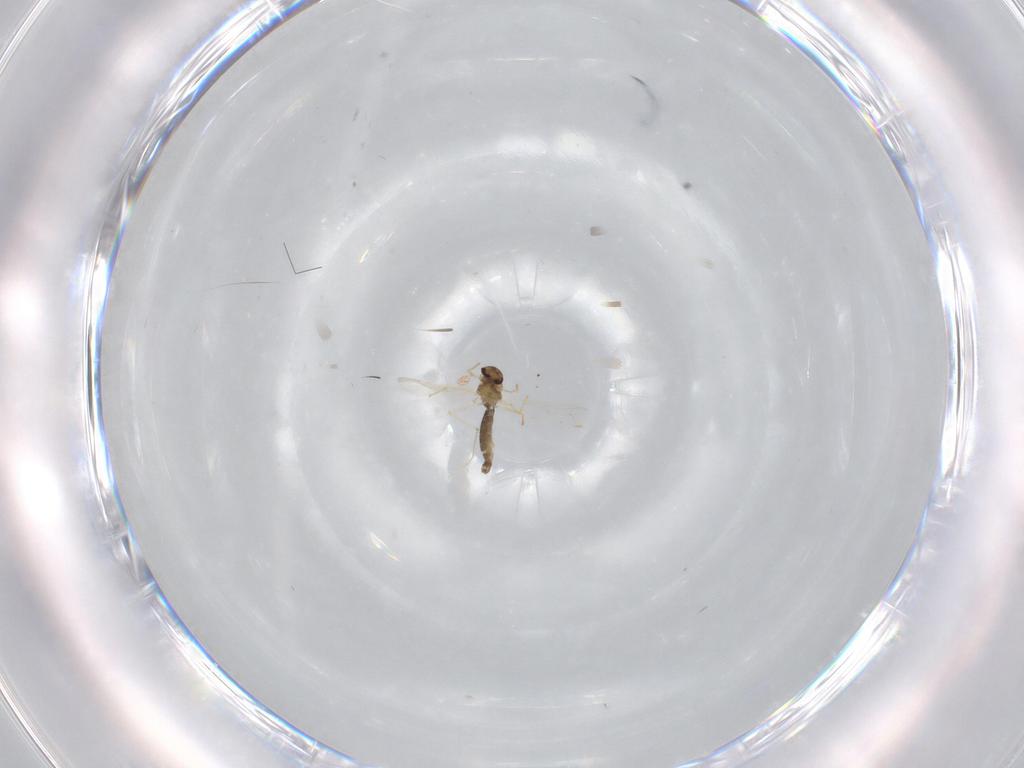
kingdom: Animalia
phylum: Arthropoda
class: Insecta
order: Diptera
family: Chironomidae
